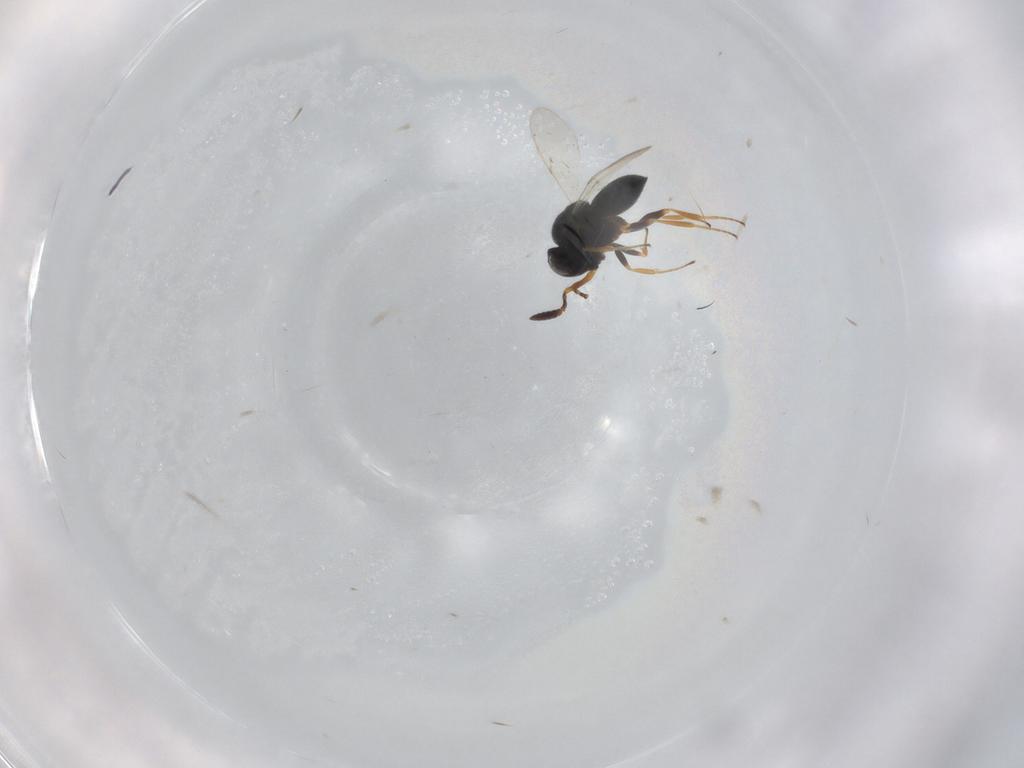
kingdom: Animalia
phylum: Arthropoda
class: Insecta
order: Coleoptera
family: Curculionidae
